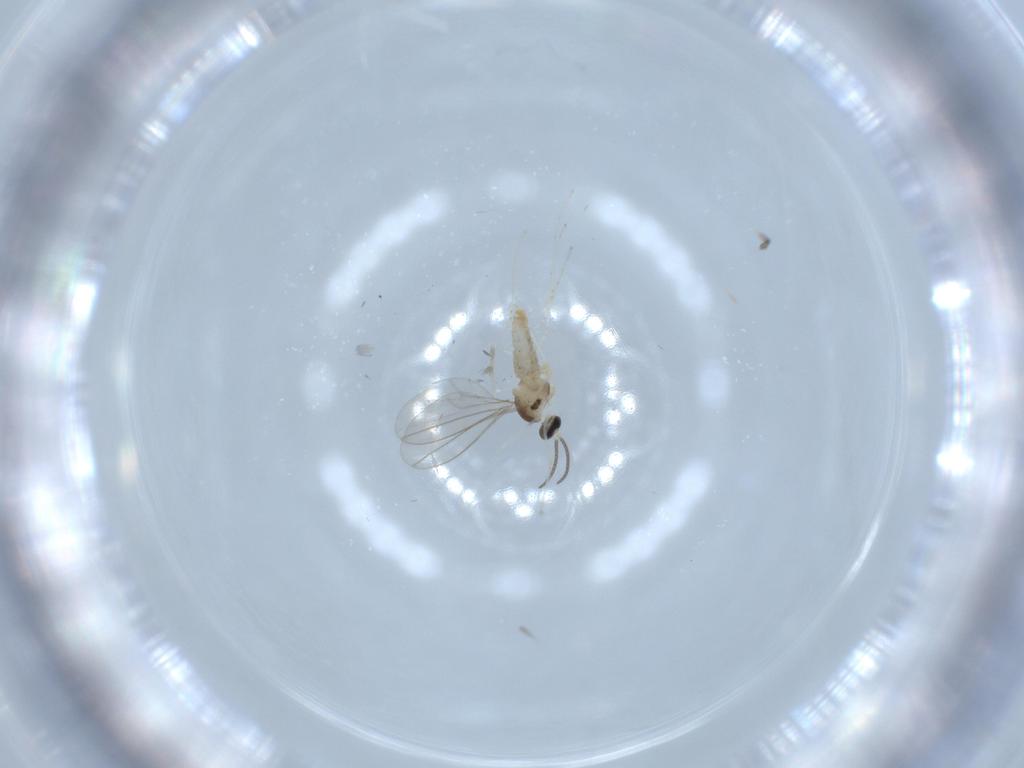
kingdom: Animalia
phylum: Arthropoda
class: Insecta
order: Diptera
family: Cecidomyiidae
